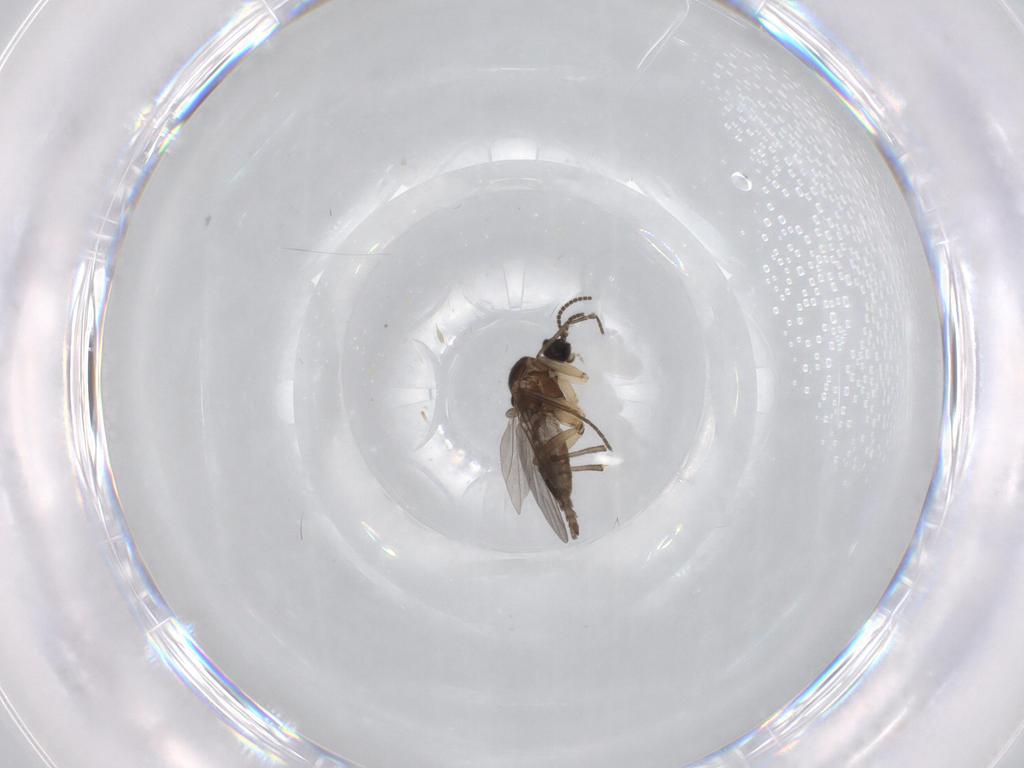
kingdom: Animalia
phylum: Arthropoda
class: Insecta
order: Diptera
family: Sciaridae
